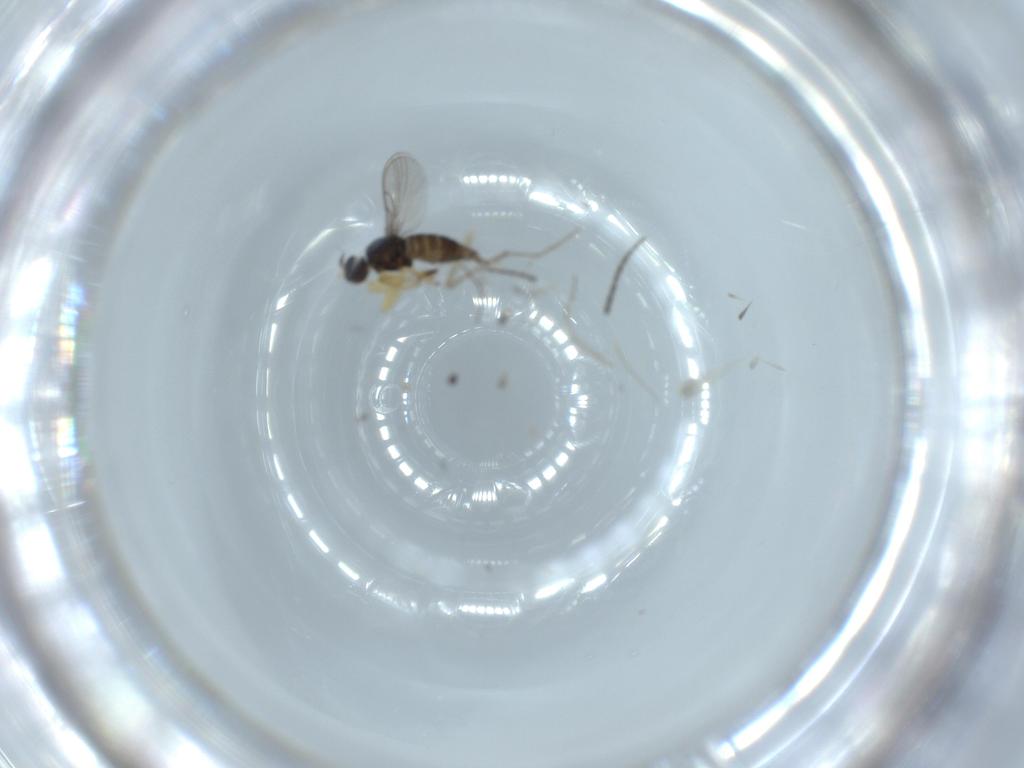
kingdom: Animalia
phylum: Arthropoda
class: Insecta
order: Diptera
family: Hybotidae
